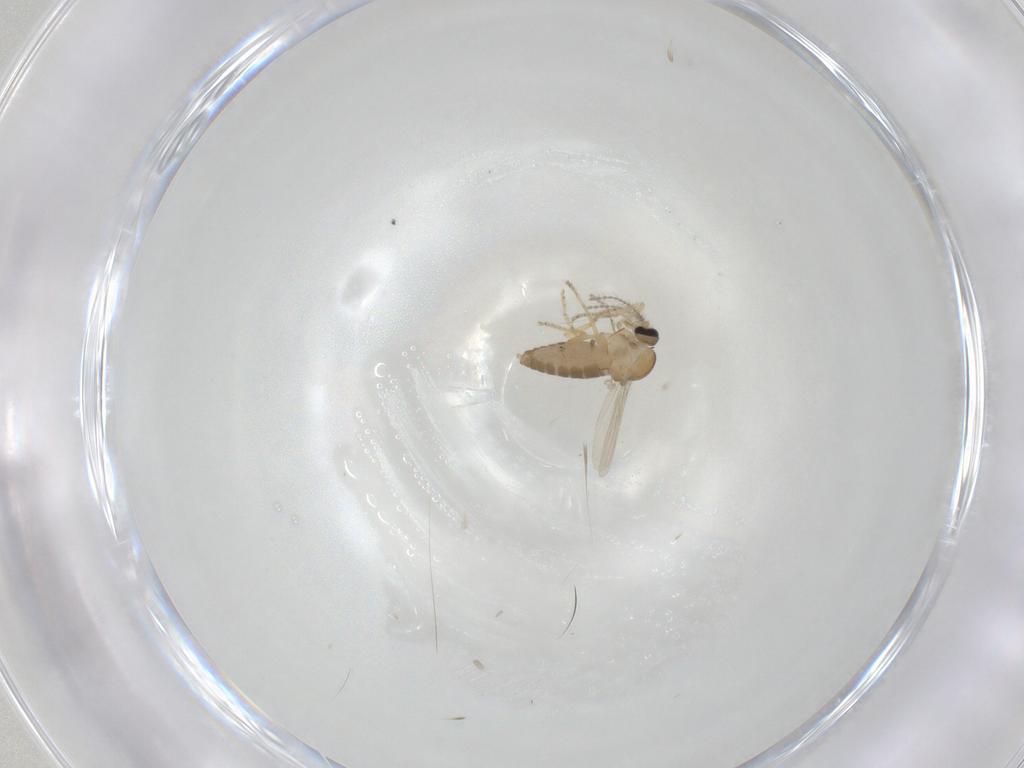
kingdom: Animalia
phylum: Arthropoda
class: Insecta
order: Diptera
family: Ceratopogonidae
